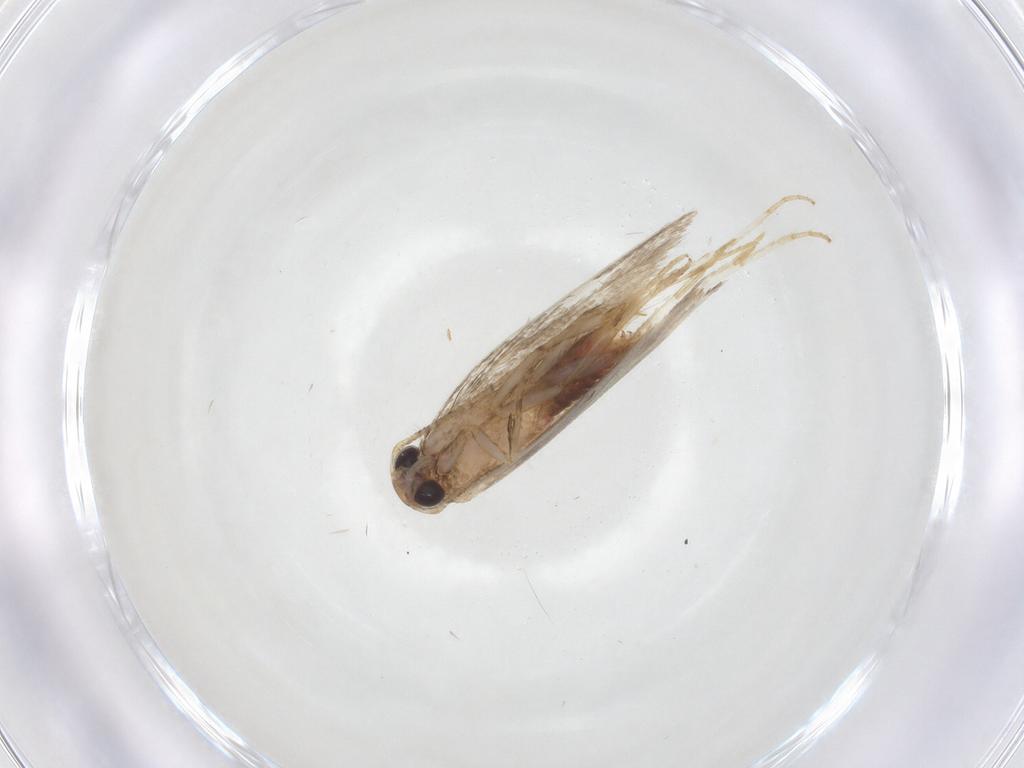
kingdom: Animalia
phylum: Arthropoda
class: Insecta
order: Lepidoptera
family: Gelechiidae
